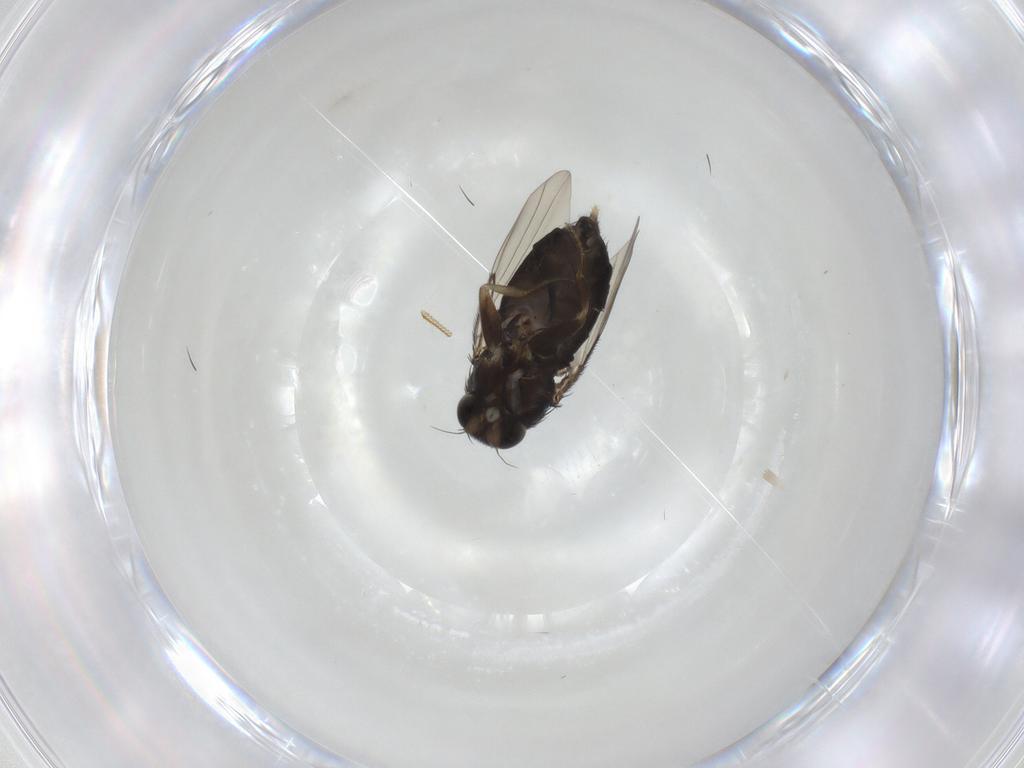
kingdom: Animalia
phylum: Arthropoda
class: Insecta
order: Diptera
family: Phoridae
